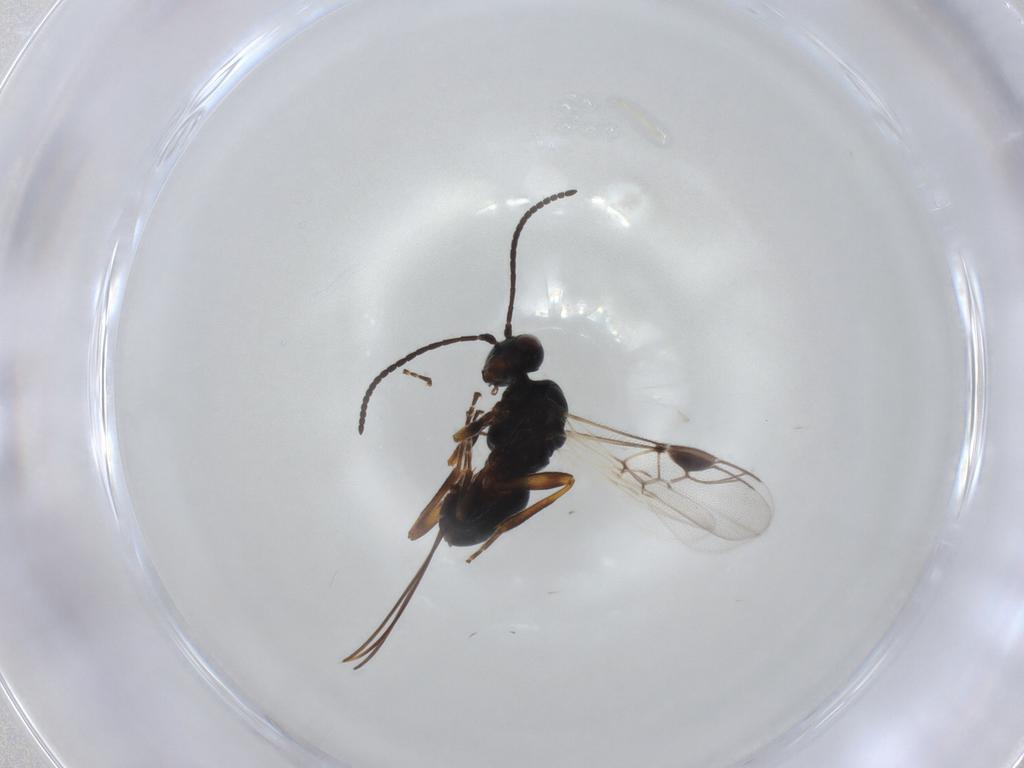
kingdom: Animalia
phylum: Arthropoda
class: Insecta
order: Hymenoptera
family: Braconidae
